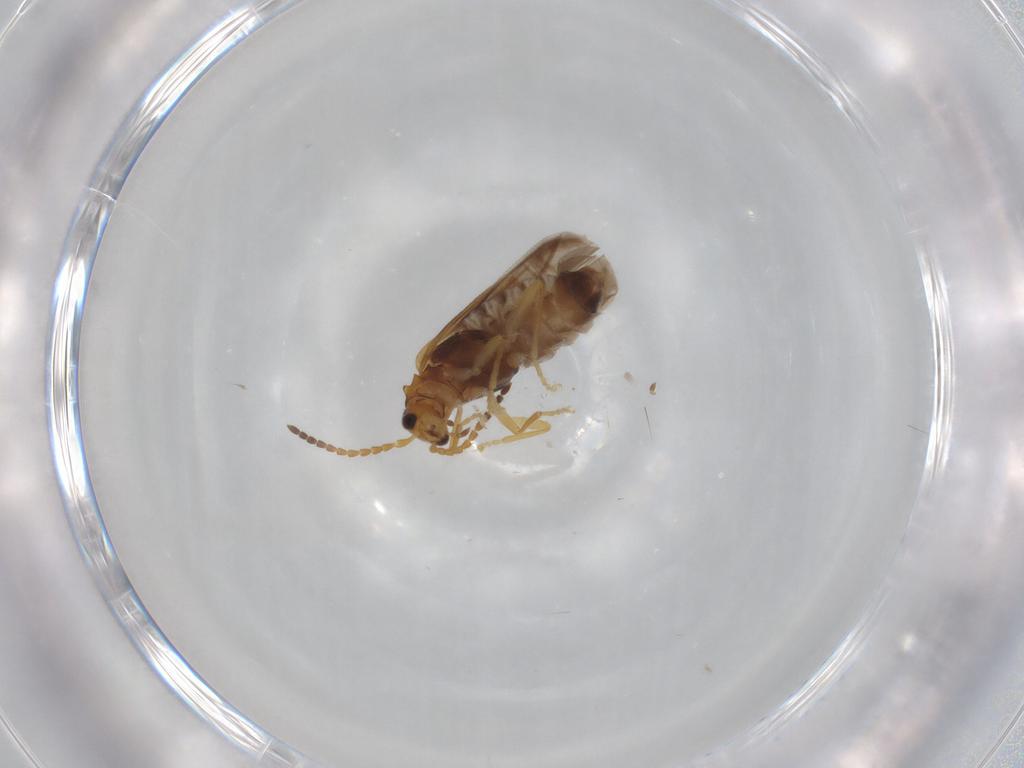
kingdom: Animalia
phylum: Arthropoda
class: Insecta
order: Coleoptera
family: Cantharidae
